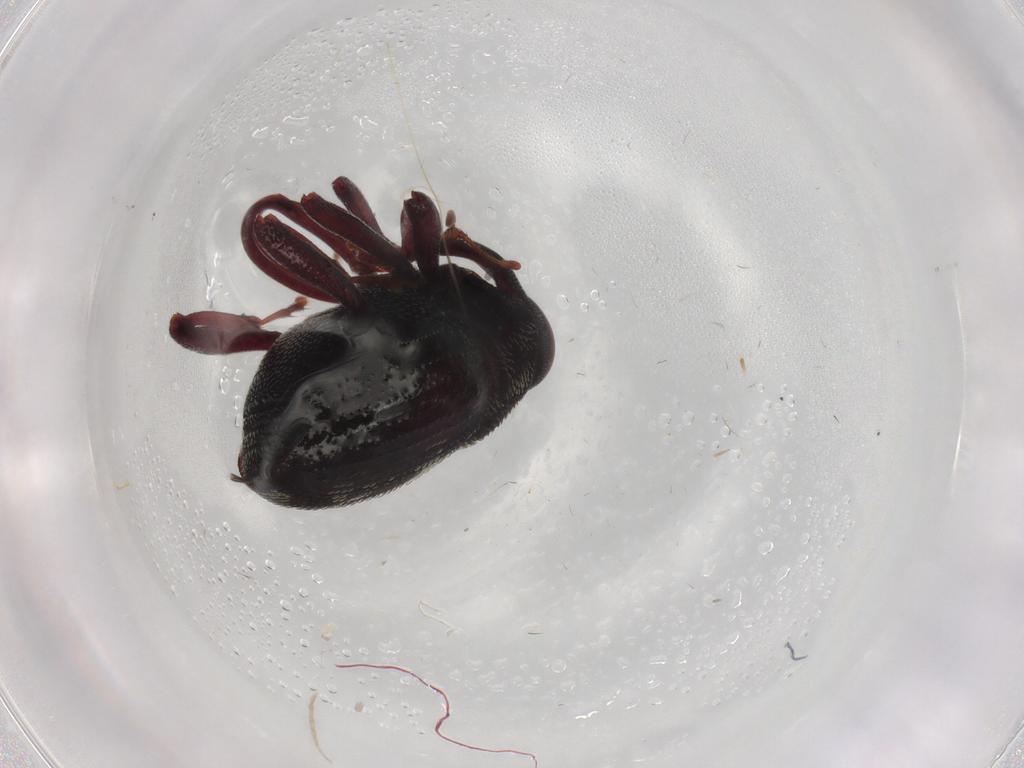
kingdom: Animalia
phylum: Arthropoda
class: Insecta
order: Coleoptera
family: Curculionidae
